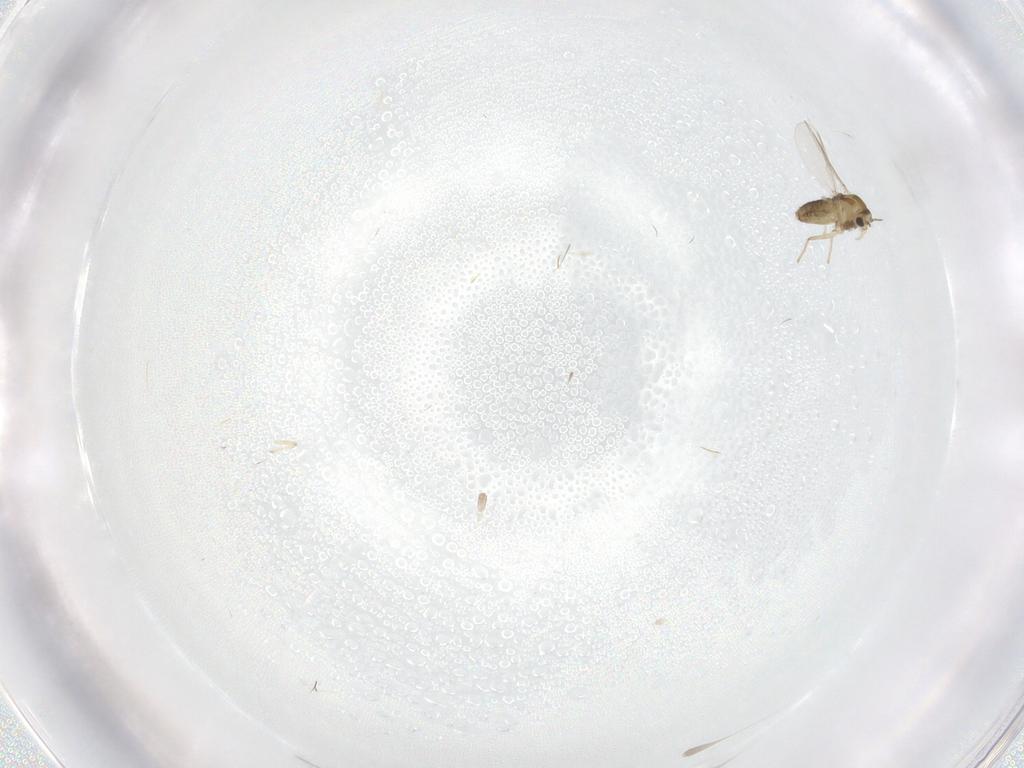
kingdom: Animalia
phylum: Arthropoda
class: Insecta
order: Diptera
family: Chironomidae
